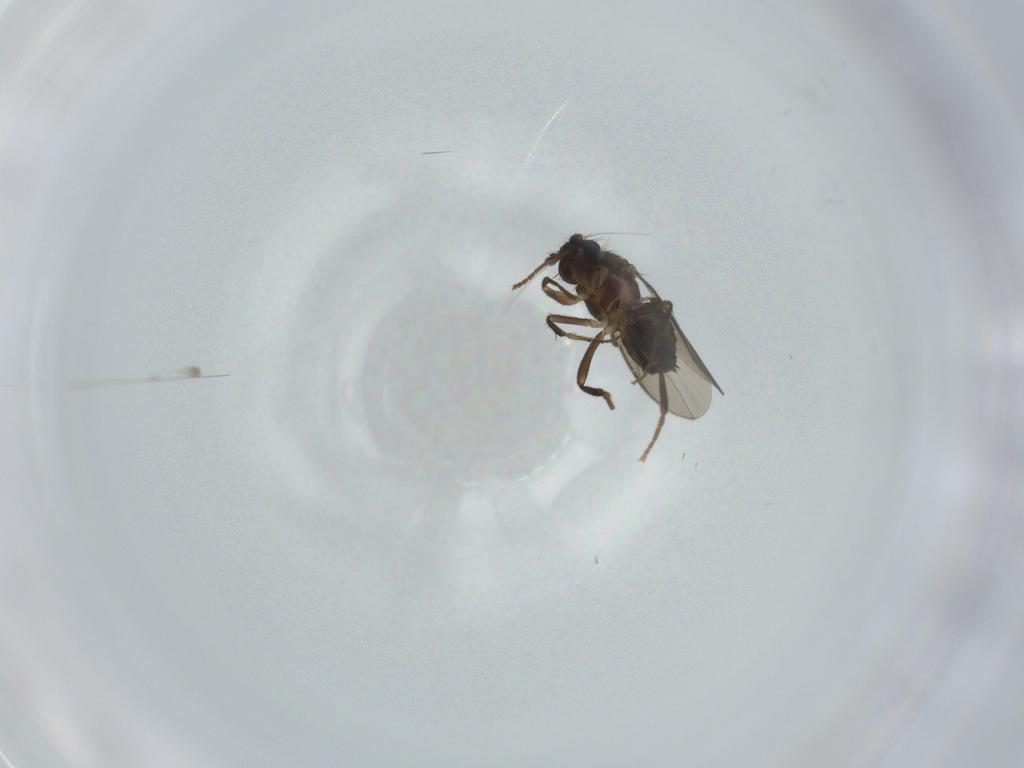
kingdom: Animalia
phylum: Arthropoda
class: Insecta
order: Diptera
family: Sphaeroceridae
